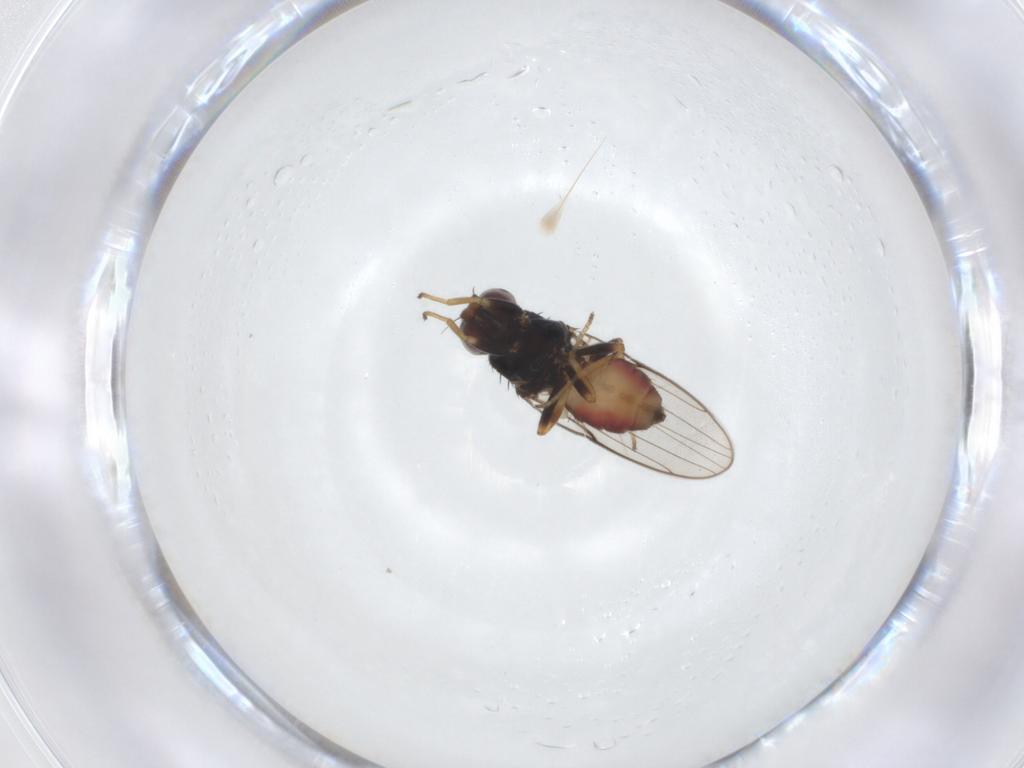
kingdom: Animalia
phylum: Arthropoda
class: Insecta
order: Diptera
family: Chloropidae
